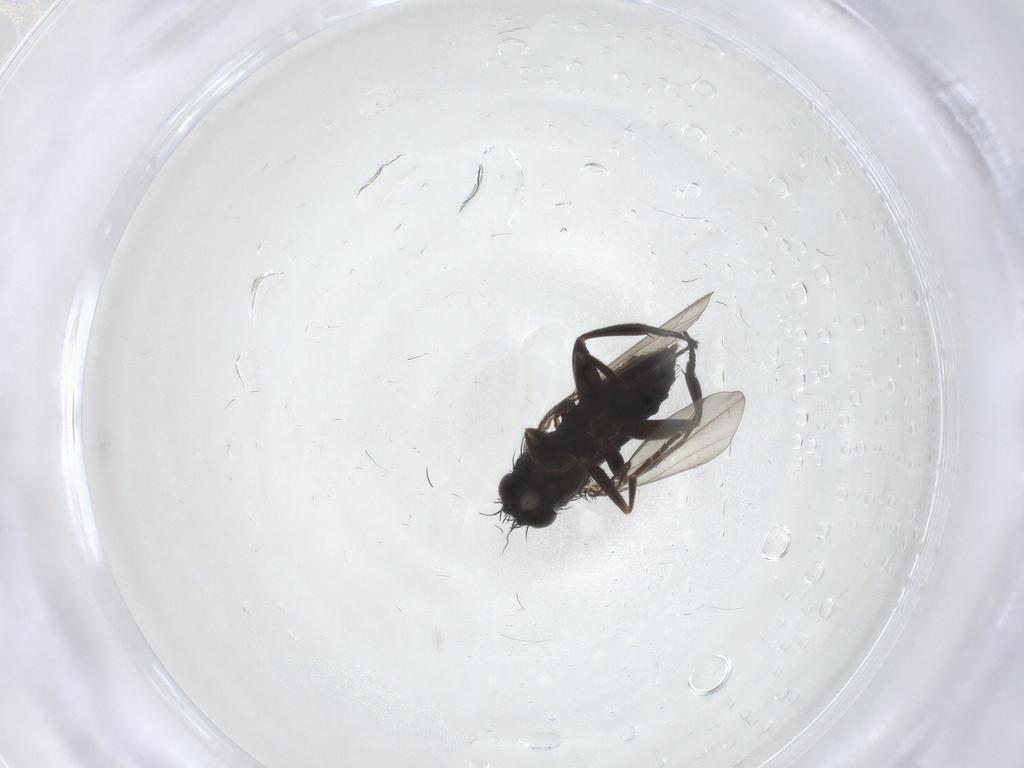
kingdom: Animalia
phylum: Arthropoda
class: Insecta
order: Diptera
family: Phoridae
